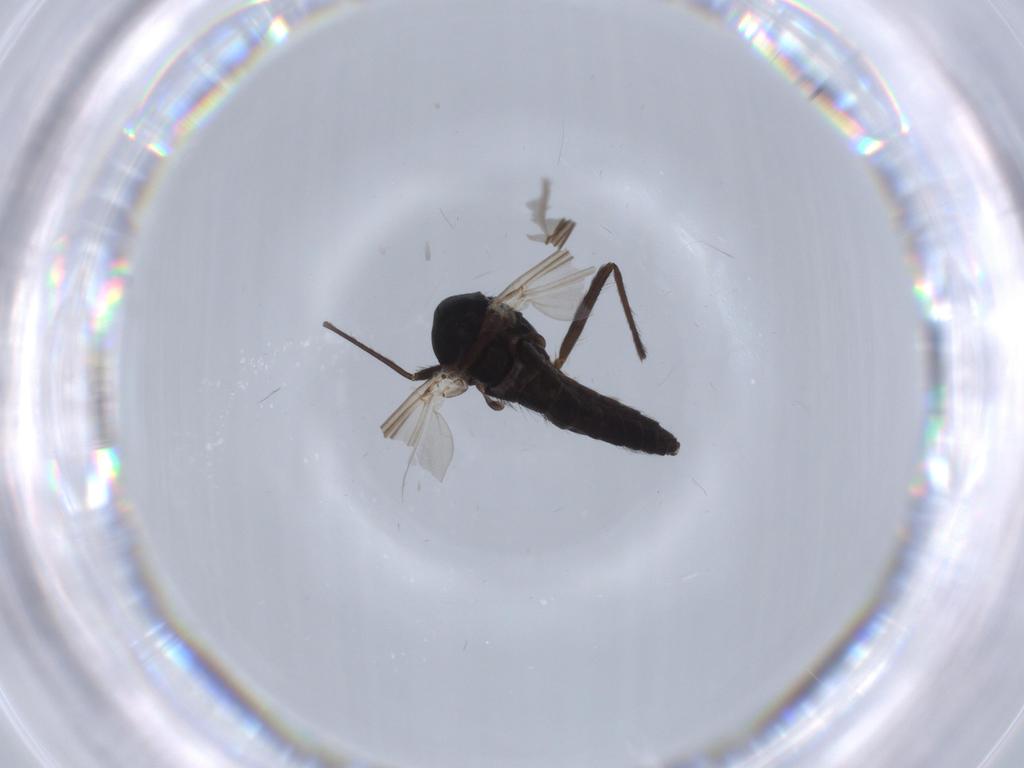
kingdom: Animalia
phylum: Arthropoda
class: Insecta
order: Diptera
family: Chironomidae
